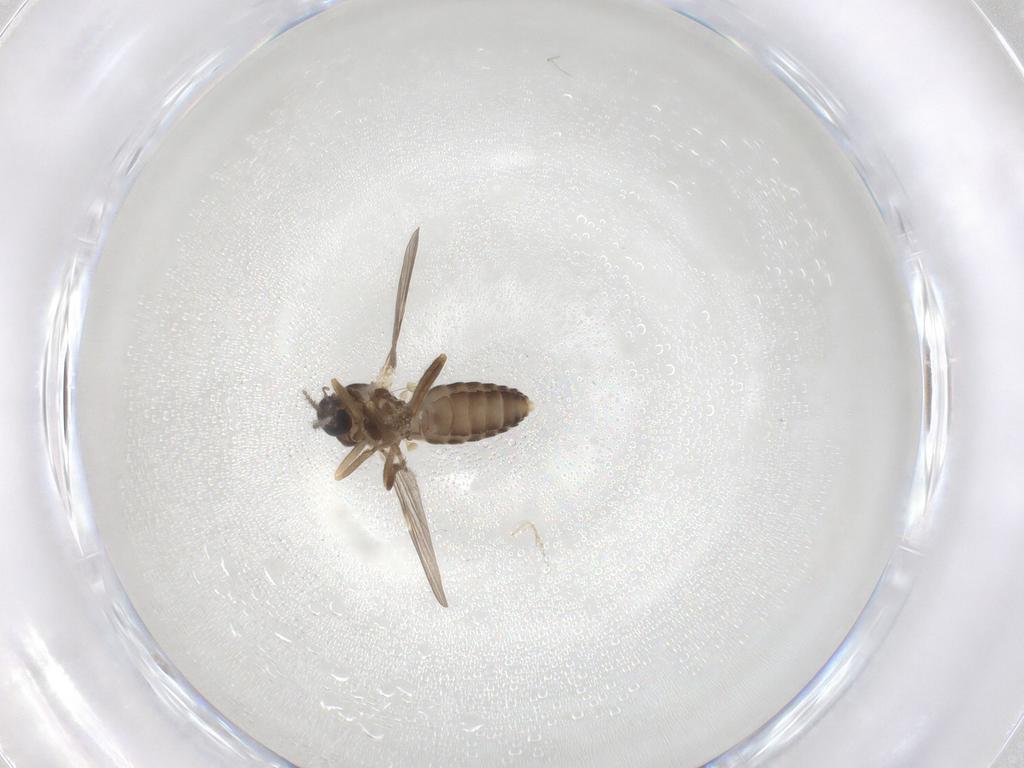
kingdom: Animalia
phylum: Arthropoda
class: Insecta
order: Diptera
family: Ceratopogonidae
